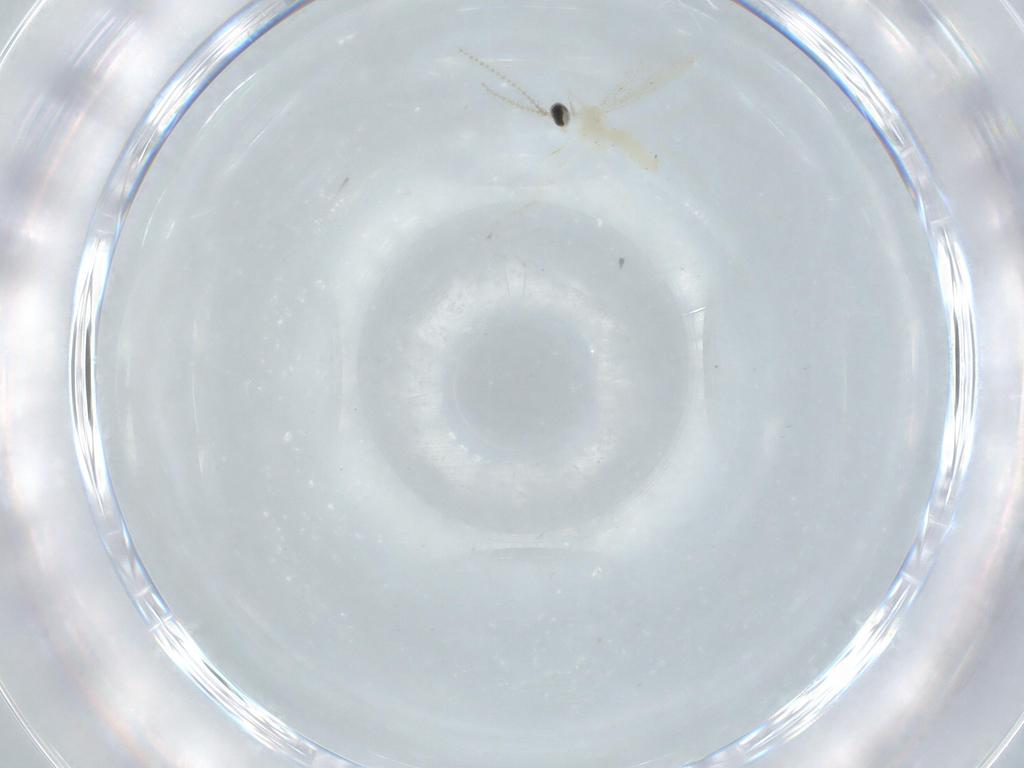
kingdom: Animalia
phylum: Arthropoda
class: Insecta
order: Diptera
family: Cecidomyiidae
